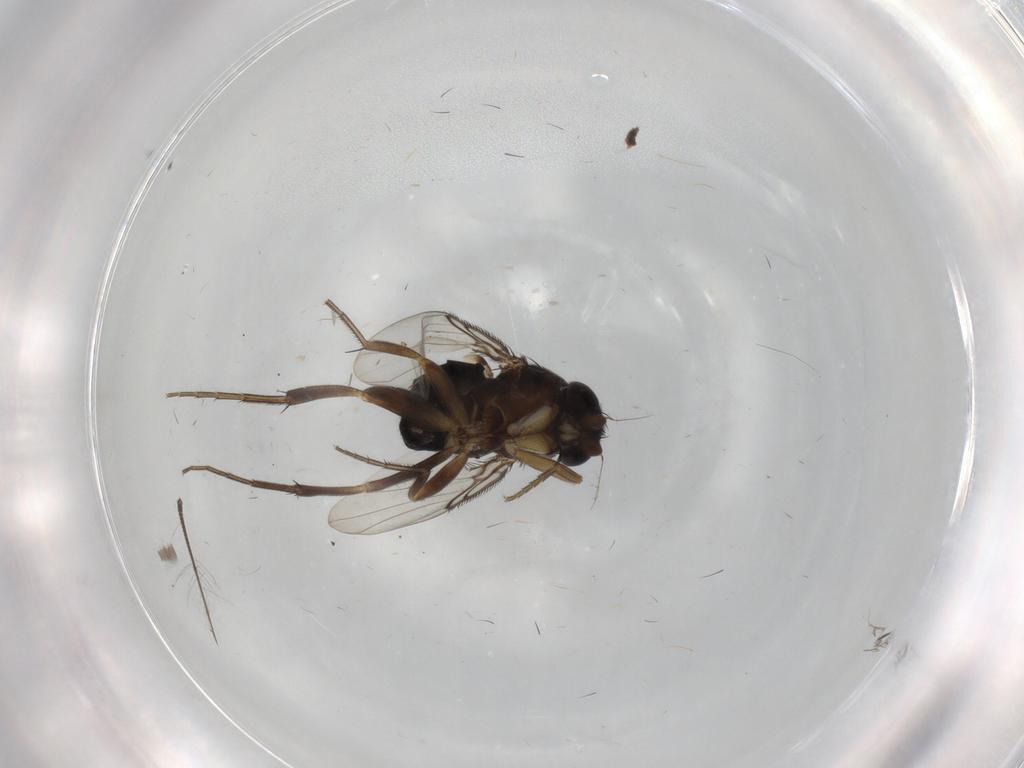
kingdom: Animalia
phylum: Arthropoda
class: Insecta
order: Diptera
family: Phoridae
